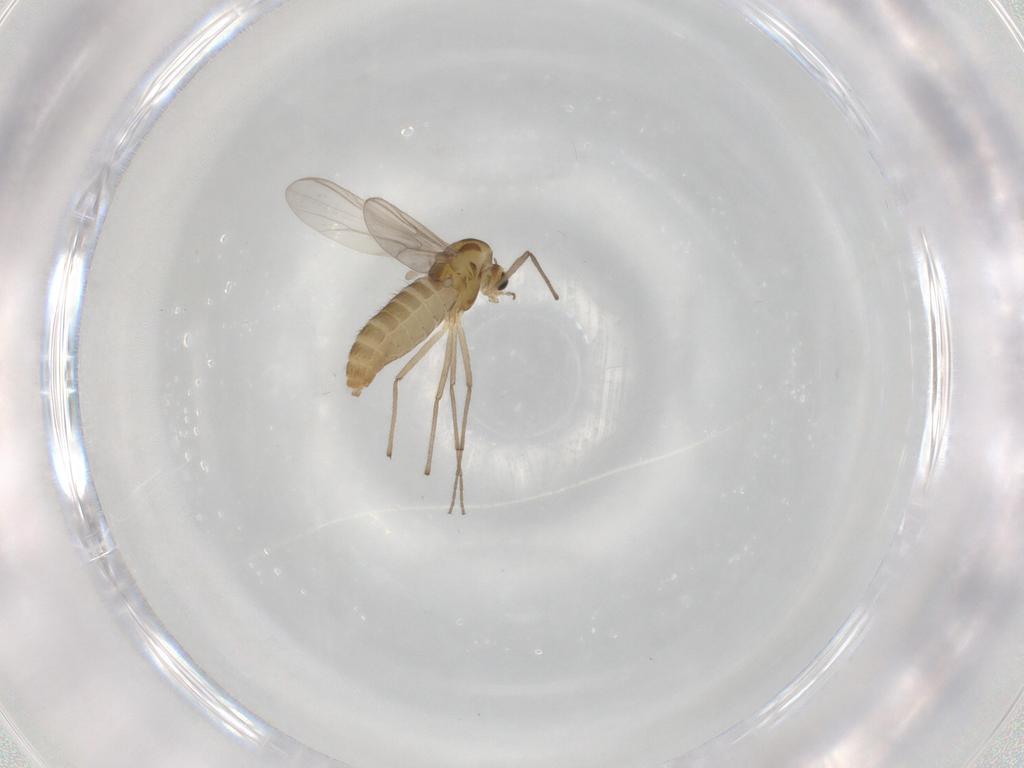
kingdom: Animalia
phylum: Arthropoda
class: Insecta
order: Diptera
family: Chironomidae
